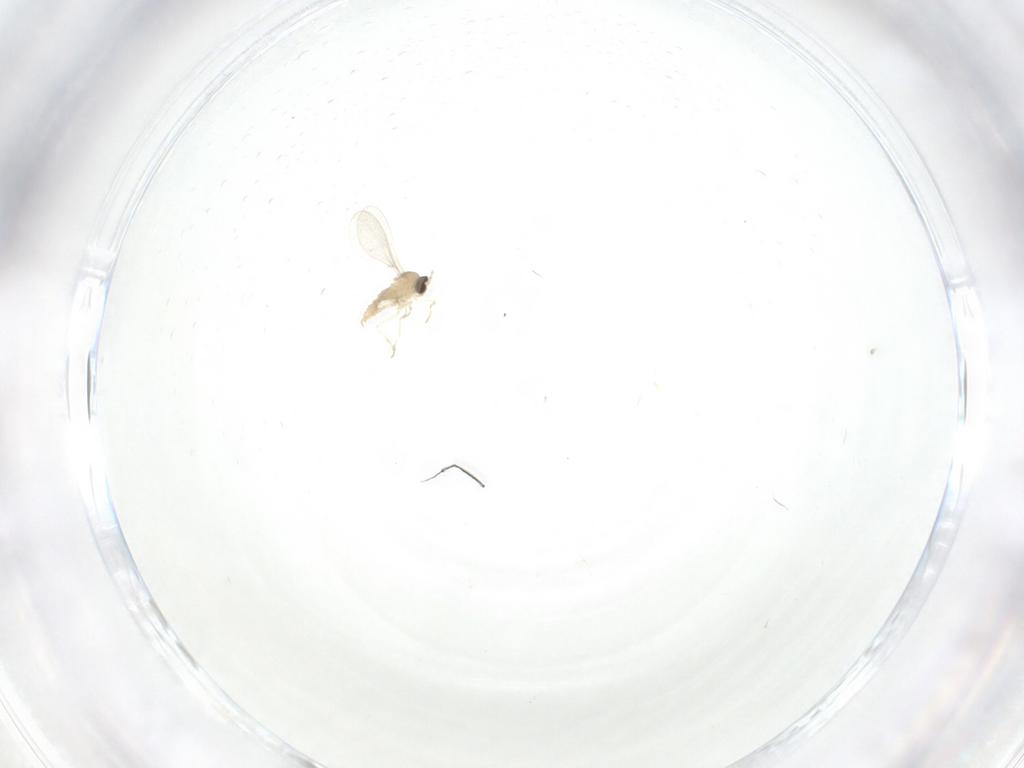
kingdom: Animalia
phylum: Arthropoda
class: Insecta
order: Diptera
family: Cecidomyiidae
